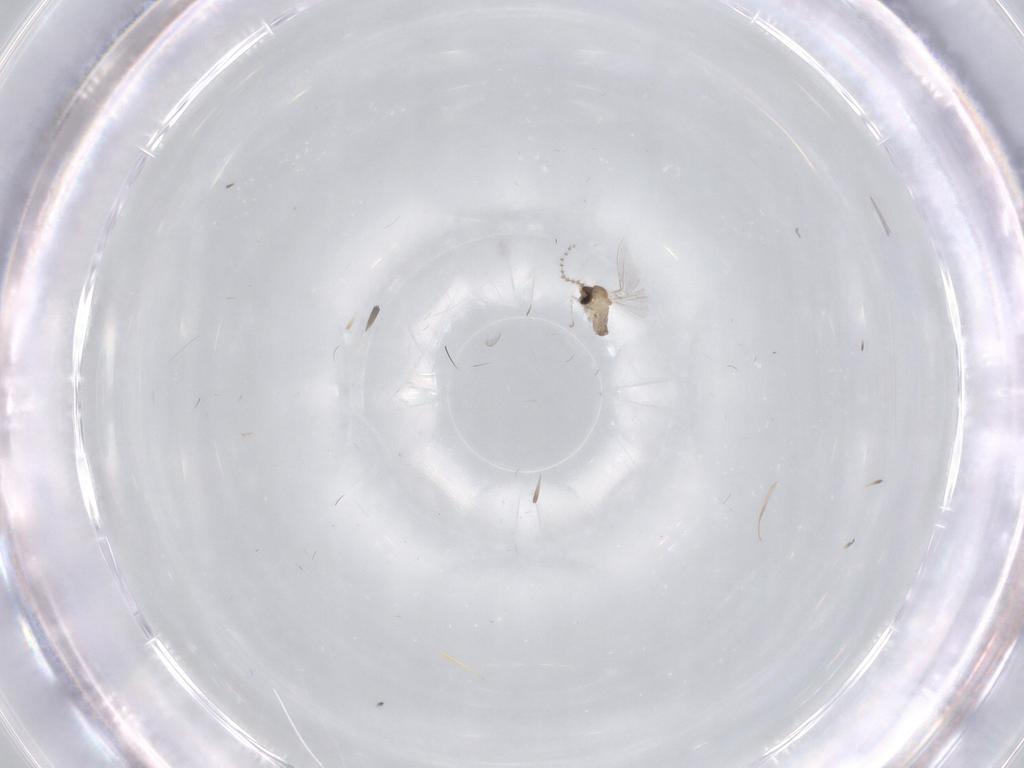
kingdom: Animalia
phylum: Arthropoda
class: Insecta
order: Diptera
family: Cecidomyiidae
